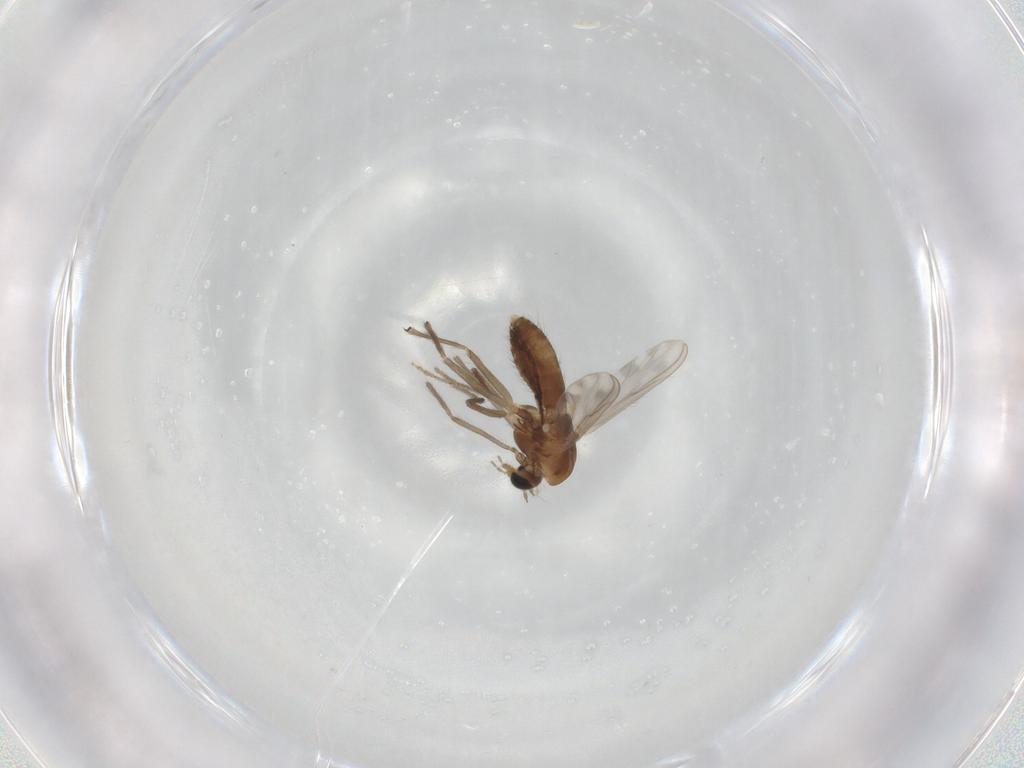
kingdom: Animalia
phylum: Arthropoda
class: Insecta
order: Diptera
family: Chironomidae
